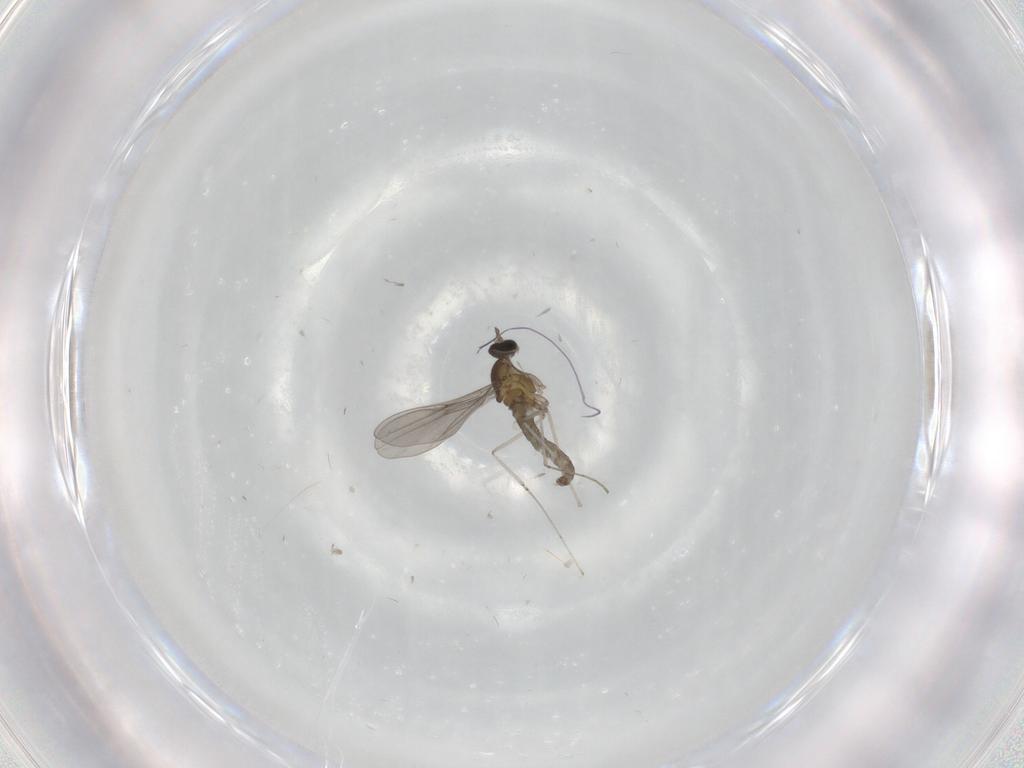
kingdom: Animalia
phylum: Arthropoda
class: Insecta
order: Diptera
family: Cecidomyiidae
